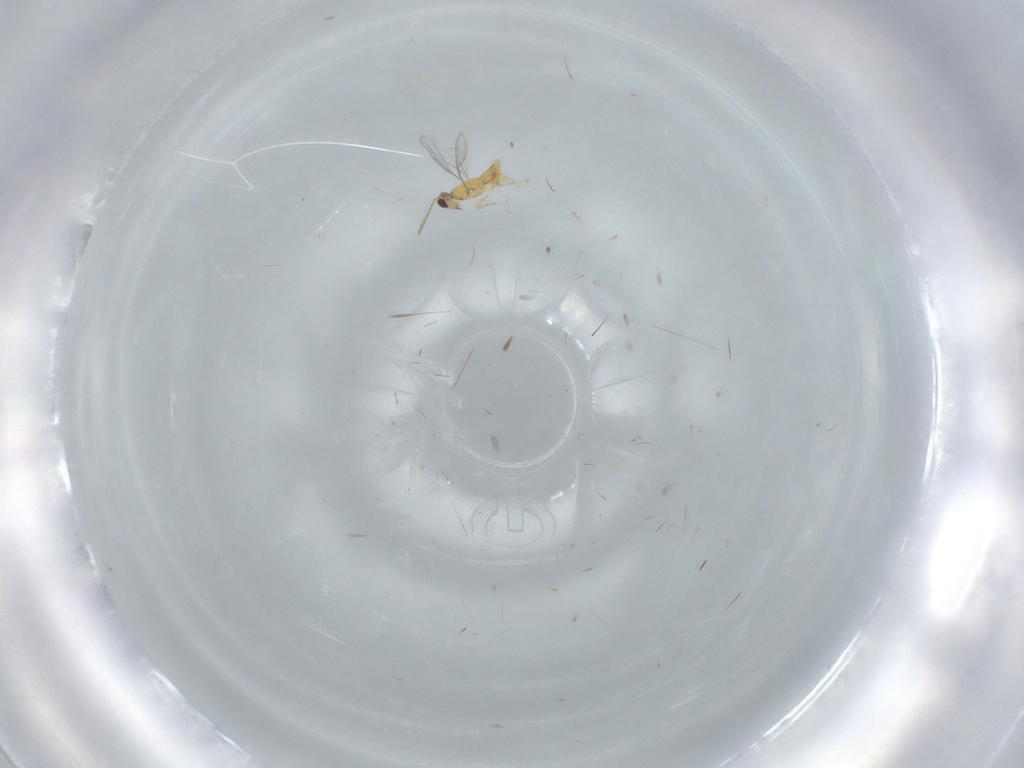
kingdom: Animalia
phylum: Arthropoda
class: Insecta
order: Hymenoptera
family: Aphelinidae
